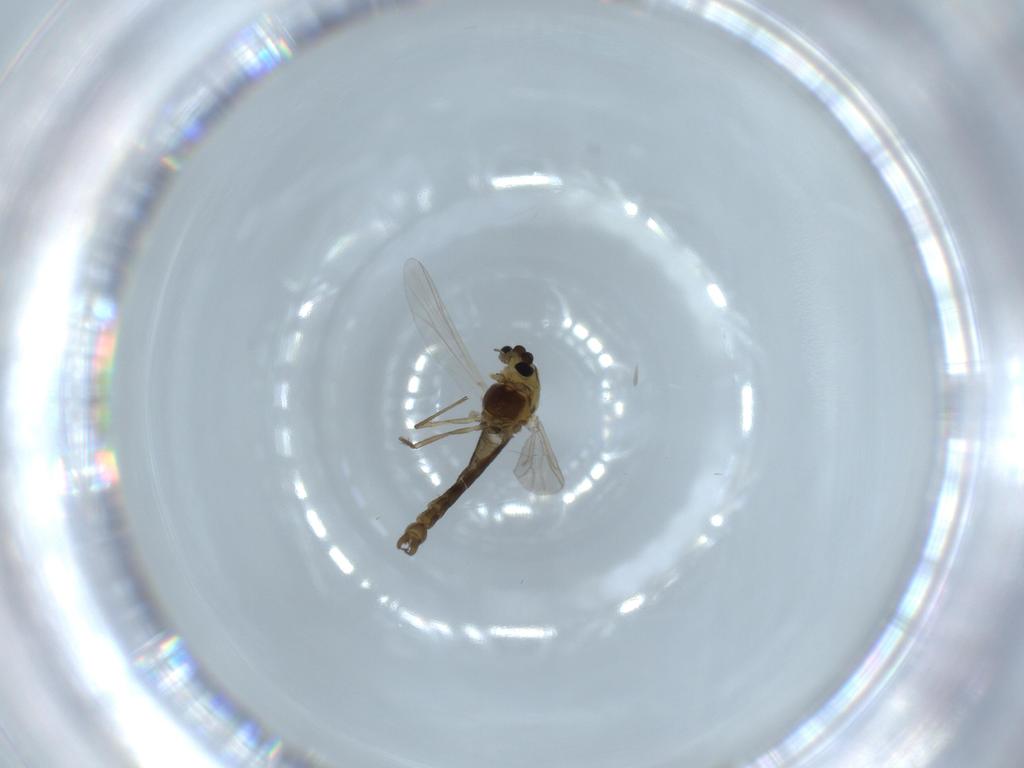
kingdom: Animalia
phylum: Arthropoda
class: Insecta
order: Diptera
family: Chironomidae
